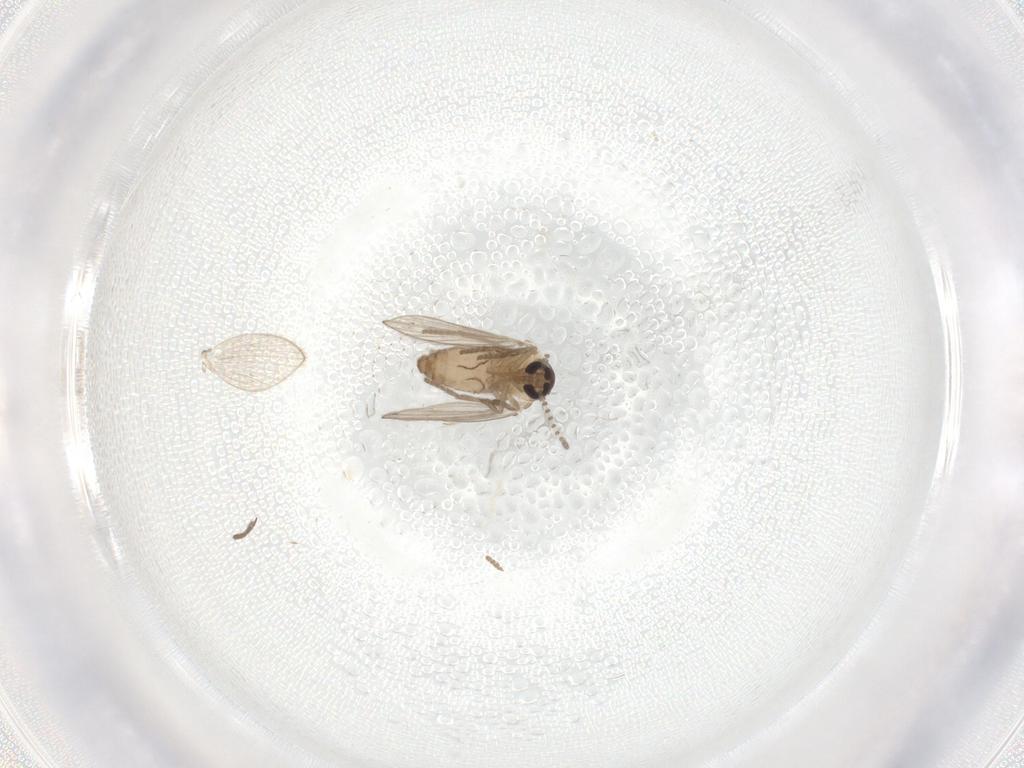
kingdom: Animalia
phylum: Arthropoda
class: Insecta
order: Diptera
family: Psychodidae
